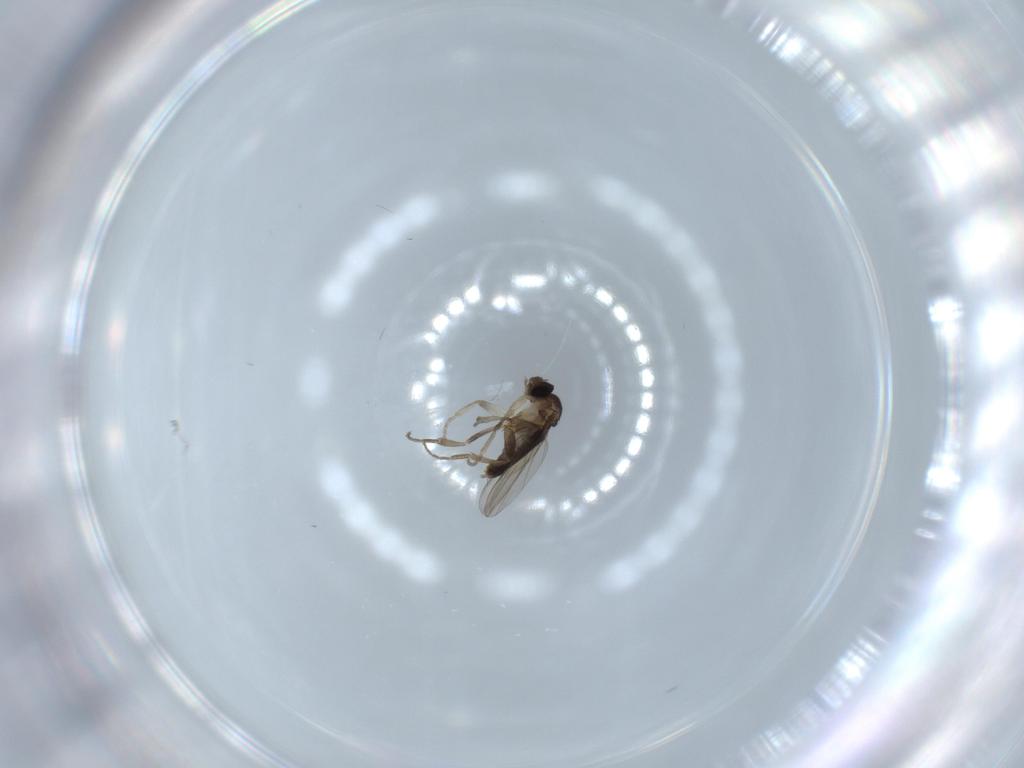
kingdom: Animalia
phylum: Arthropoda
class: Insecta
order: Diptera
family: Phoridae
